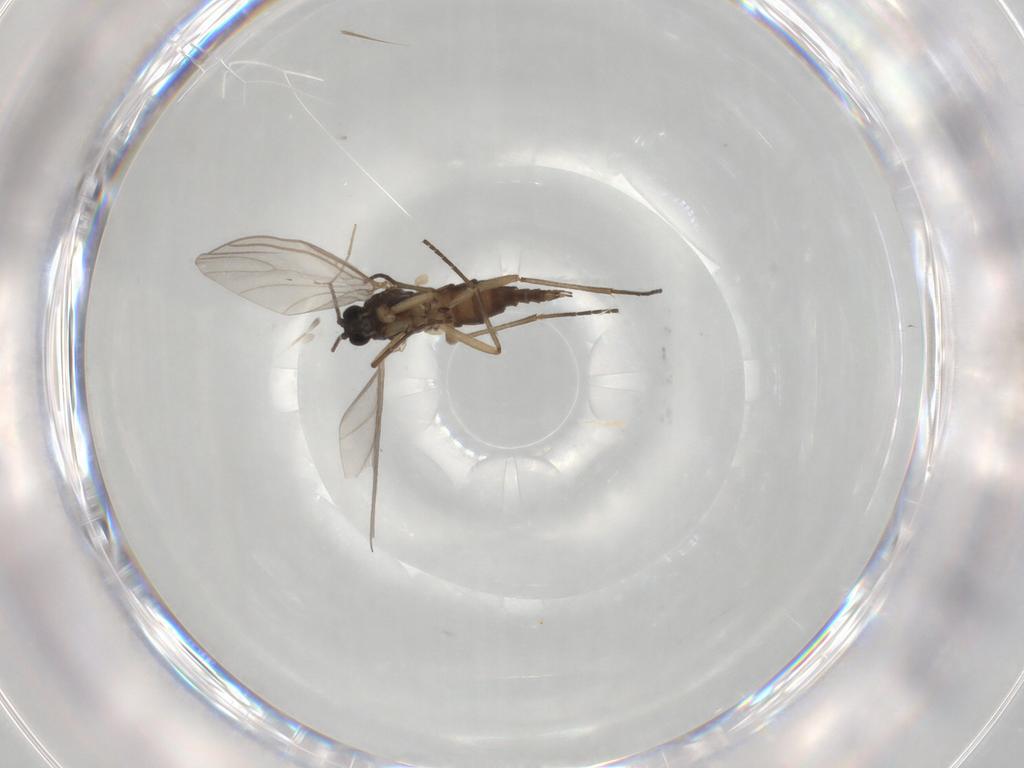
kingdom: Animalia
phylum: Arthropoda
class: Insecta
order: Diptera
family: Sciaridae
